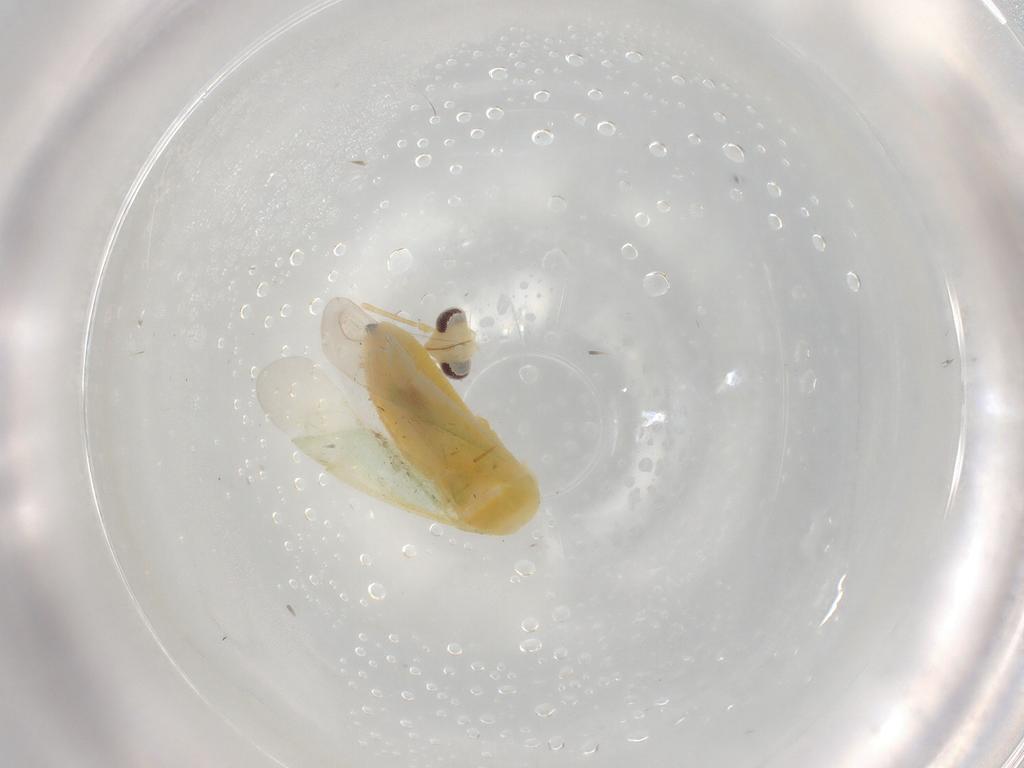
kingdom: Animalia
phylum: Arthropoda
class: Insecta
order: Hemiptera
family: Miridae
